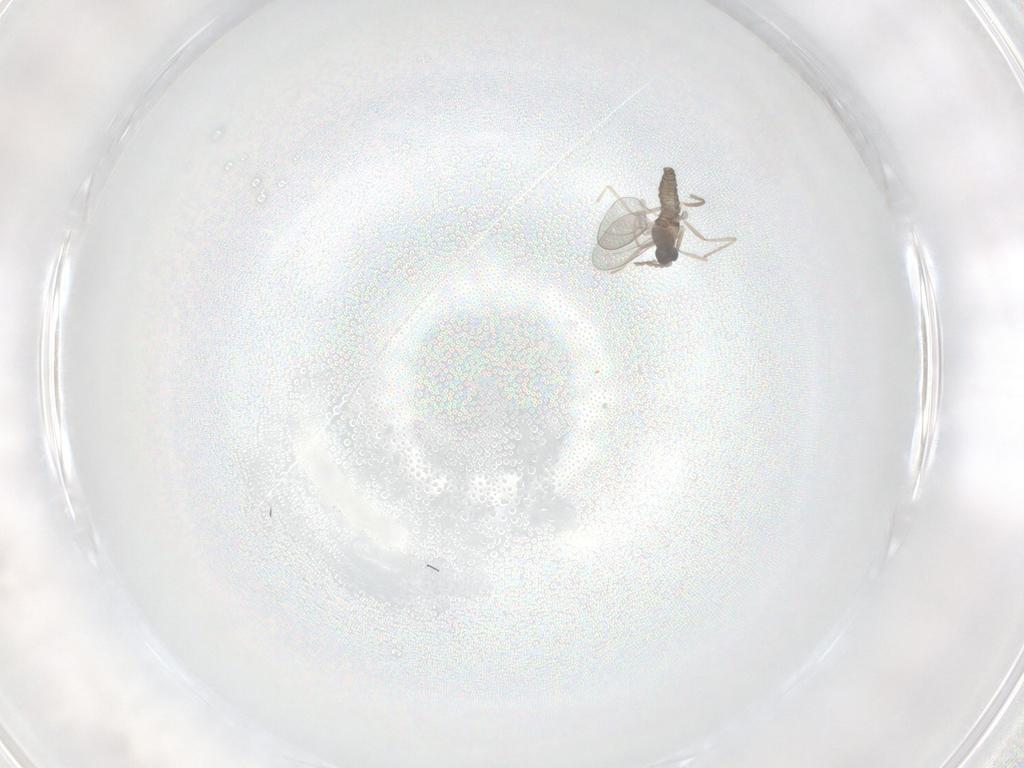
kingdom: Animalia
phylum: Arthropoda
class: Insecta
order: Diptera
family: Cecidomyiidae
